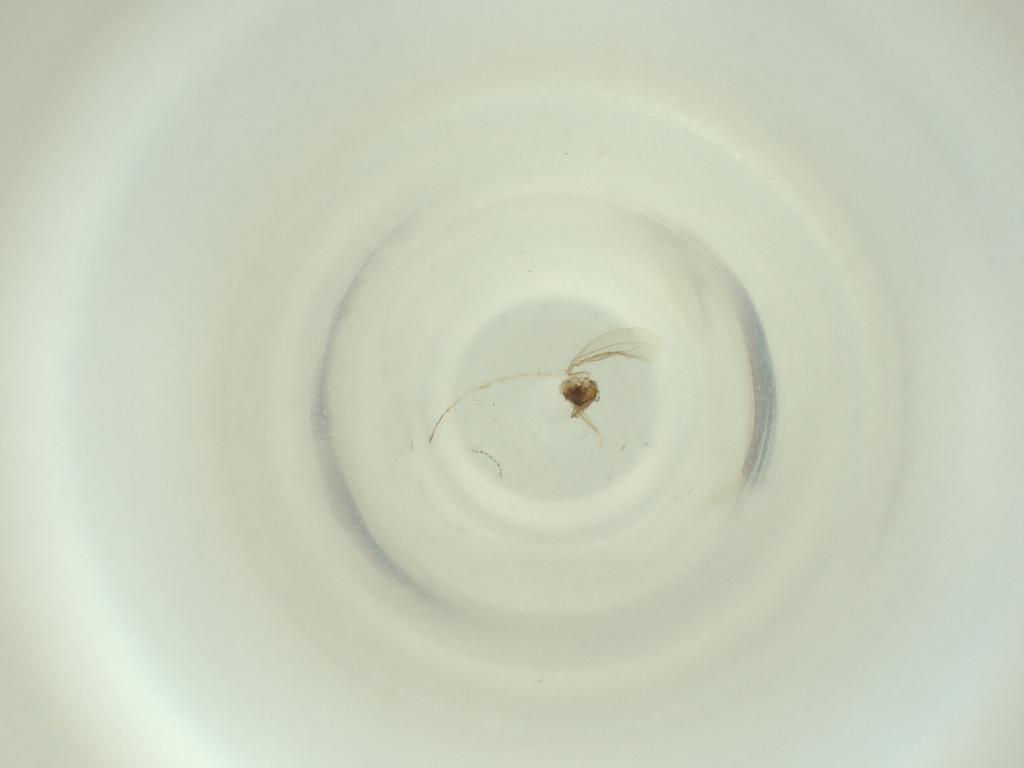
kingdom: Animalia
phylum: Arthropoda
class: Insecta
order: Diptera
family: Cecidomyiidae
